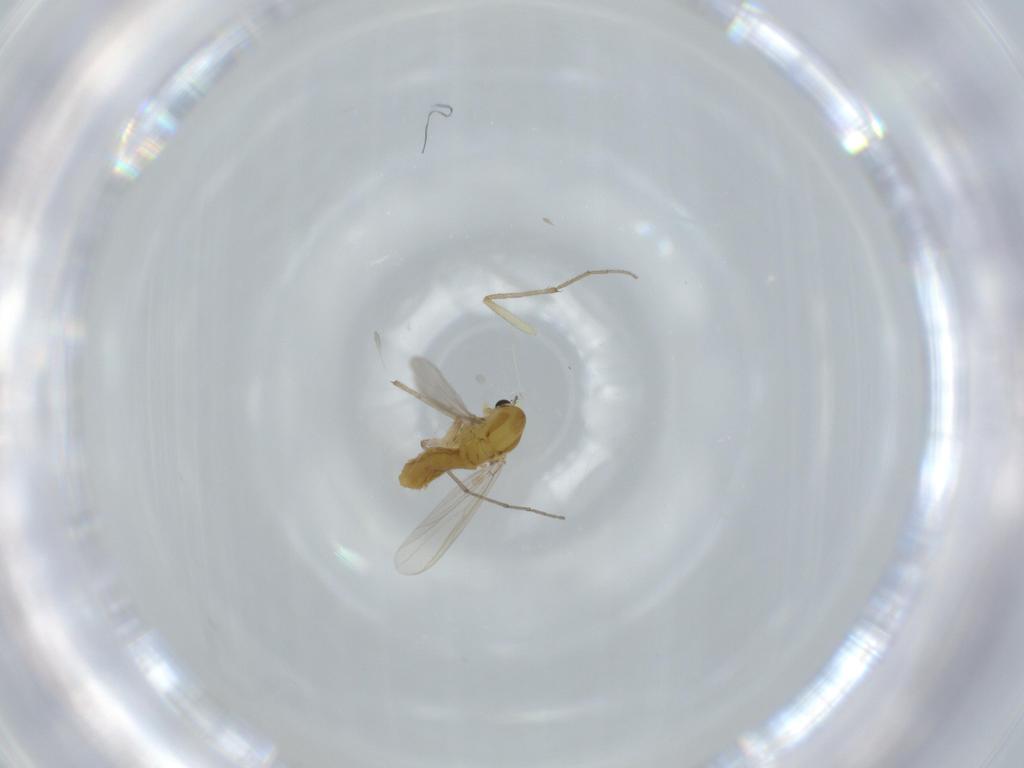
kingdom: Animalia
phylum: Arthropoda
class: Insecta
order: Diptera
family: Chironomidae
